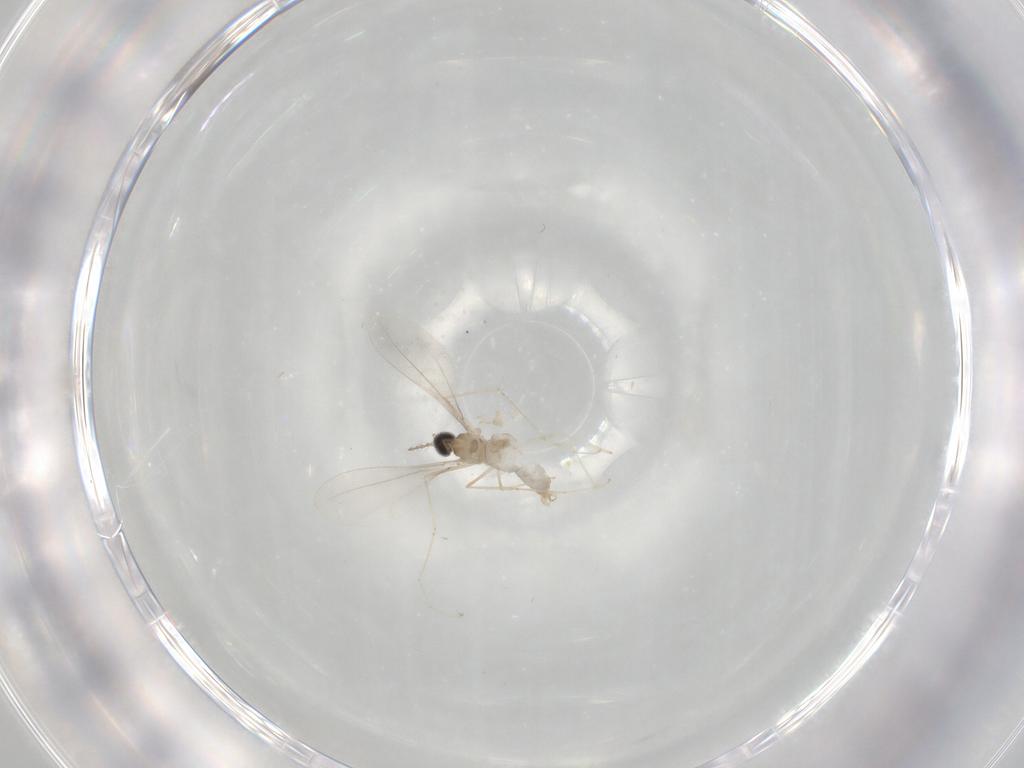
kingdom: Animalia
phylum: Arthropoda
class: Insecta
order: Diptera
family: Cecidomyiidae
